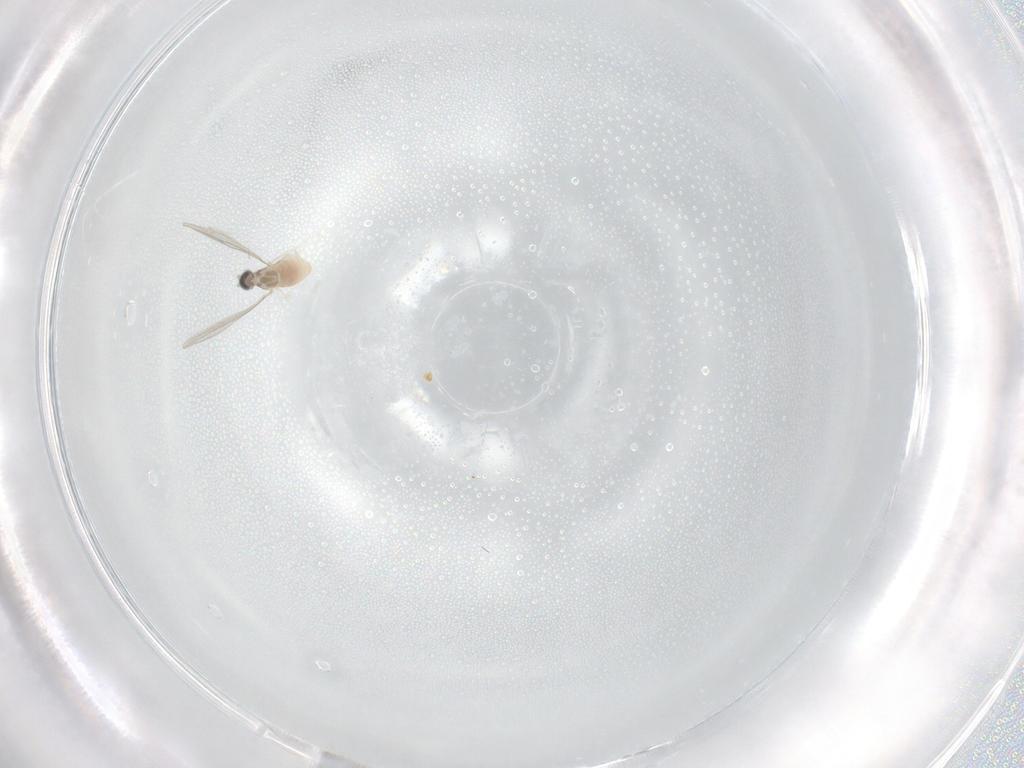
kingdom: Animalia
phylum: Arthropoda
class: Insecta
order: Diptera
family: Cecidomyiidae
